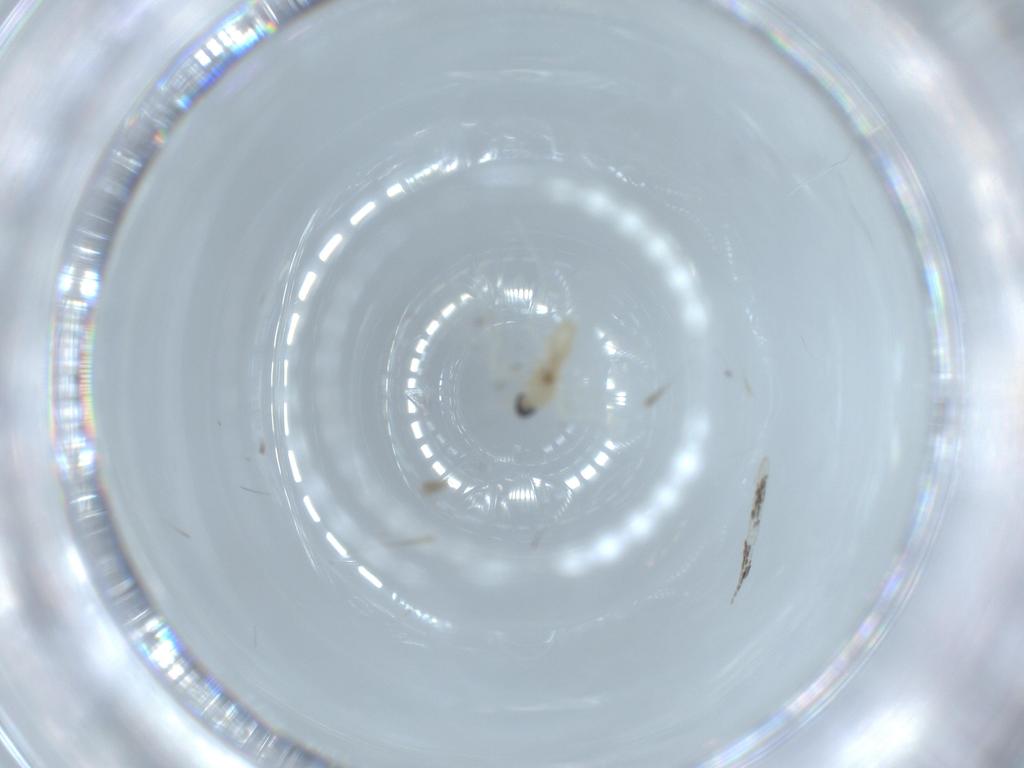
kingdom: Animalia
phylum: Arthropoda
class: Insecta
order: Diptera
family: Cecidomyiidae
